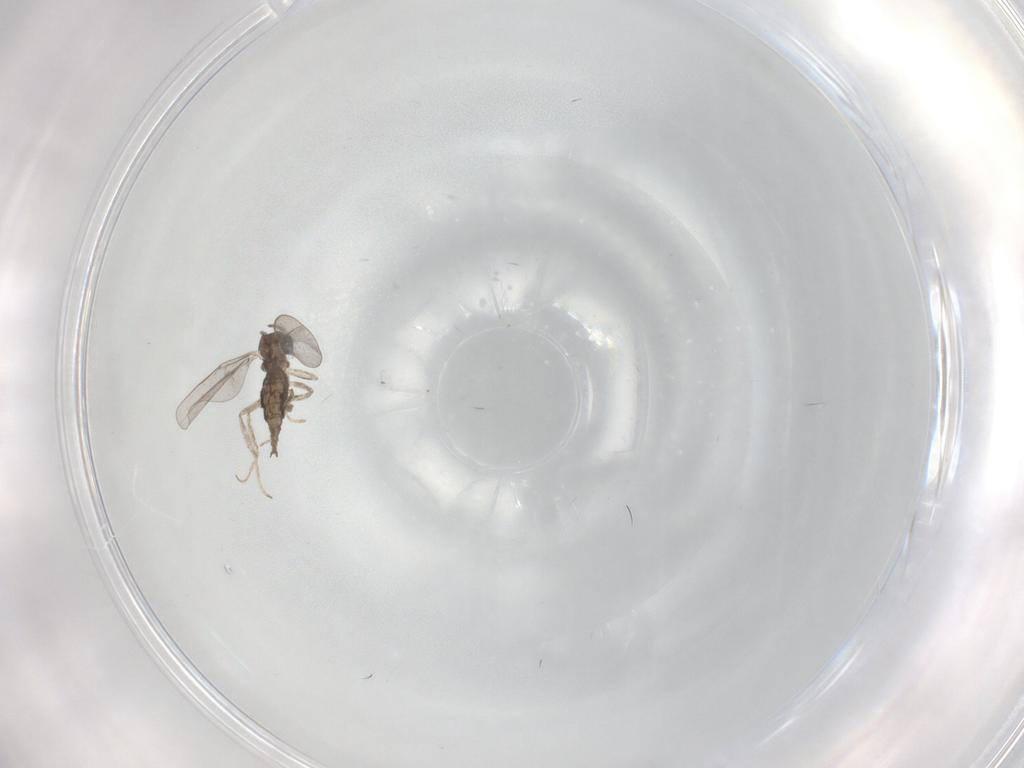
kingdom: Animalia
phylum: Arthropoda
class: Insecta
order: Diptera
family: Cecidomyiidae
